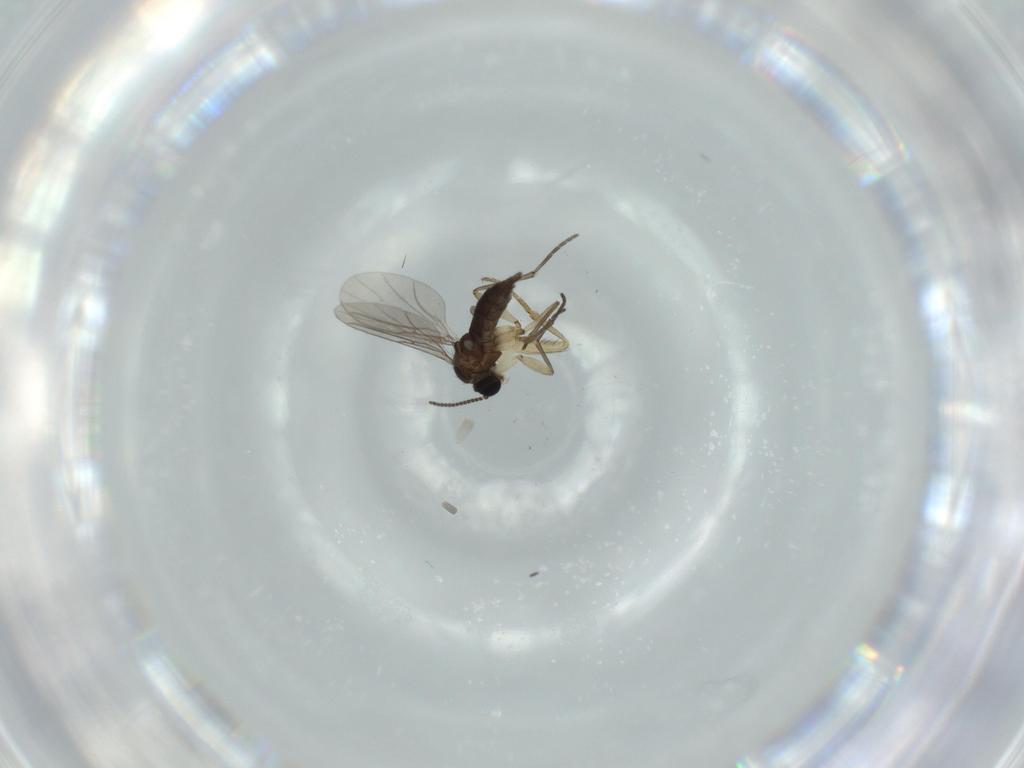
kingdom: Animalia
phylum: Arthropoda
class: Insecta
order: Diptera
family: Sciaridae
